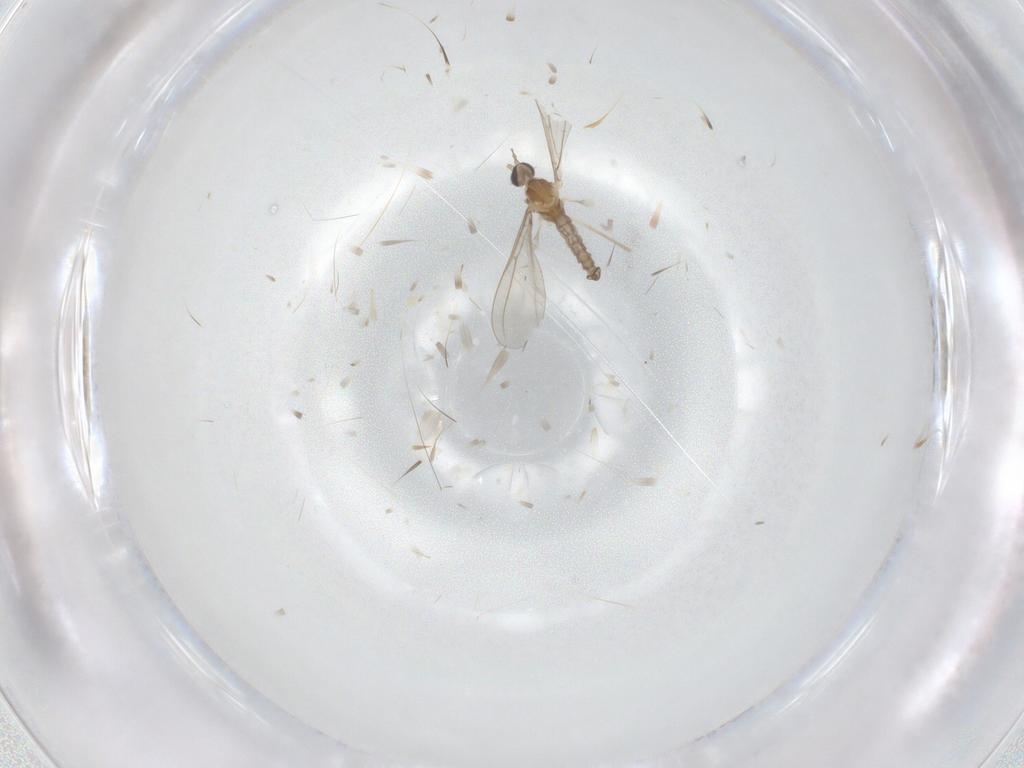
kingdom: Animalia
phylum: Arthropoda
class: Insecta
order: Diptera
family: Cecidomyiidae
